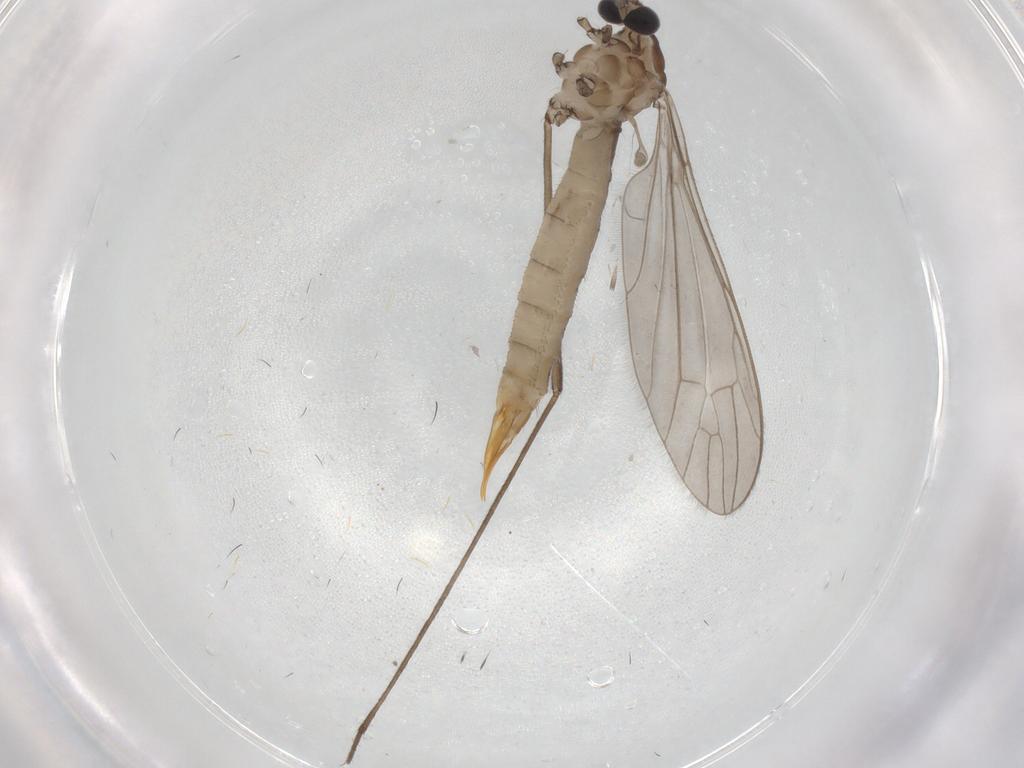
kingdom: Animalia
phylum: Arthropoda
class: Insecta
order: Diptera
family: Limoniidae
